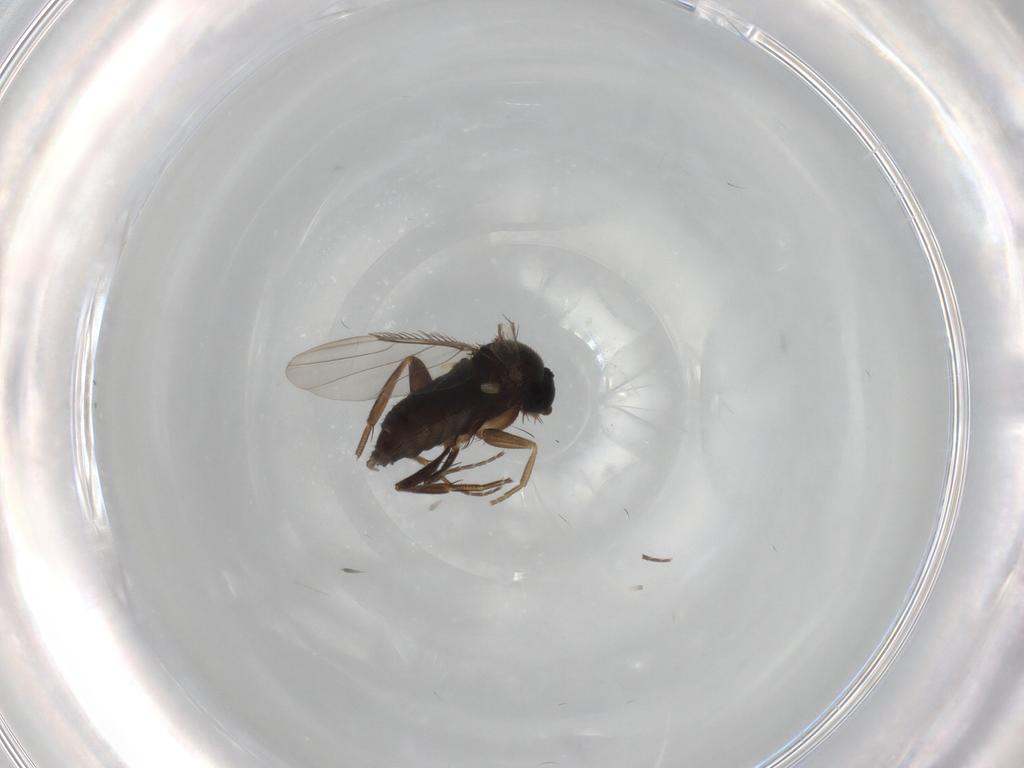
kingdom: Animalia
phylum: Arthropoda
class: Insecta
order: Diptera
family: Phoridae
